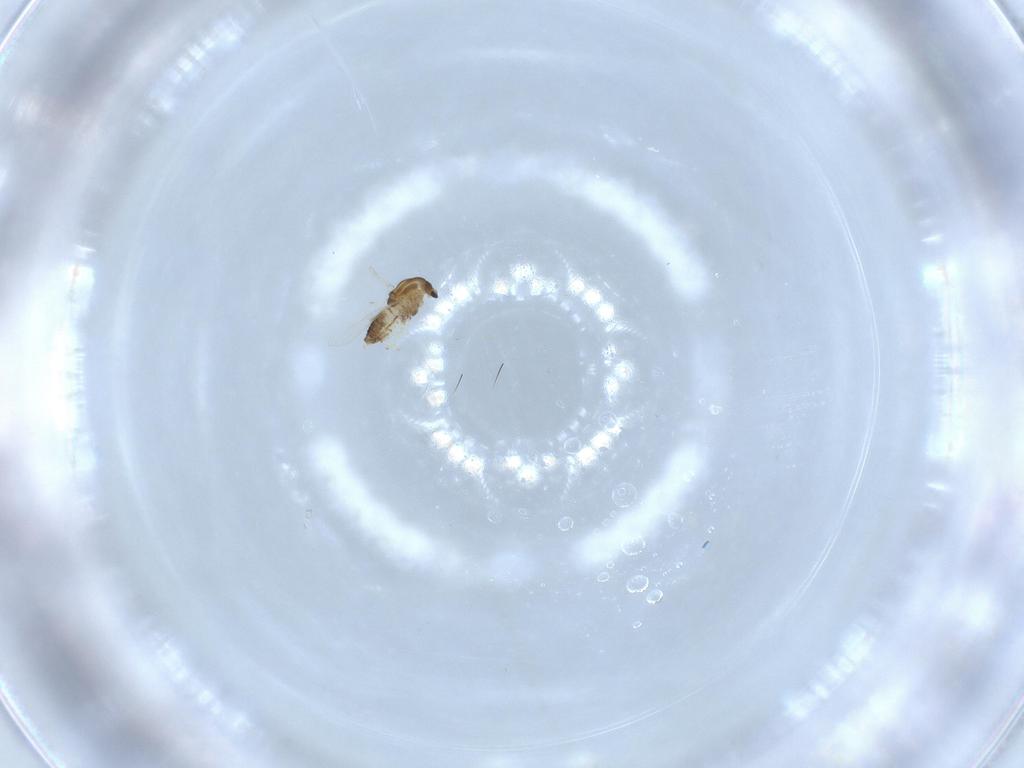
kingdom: Animalia
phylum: Arthropoda
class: Insecta
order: Diptera
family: Chironomidae
